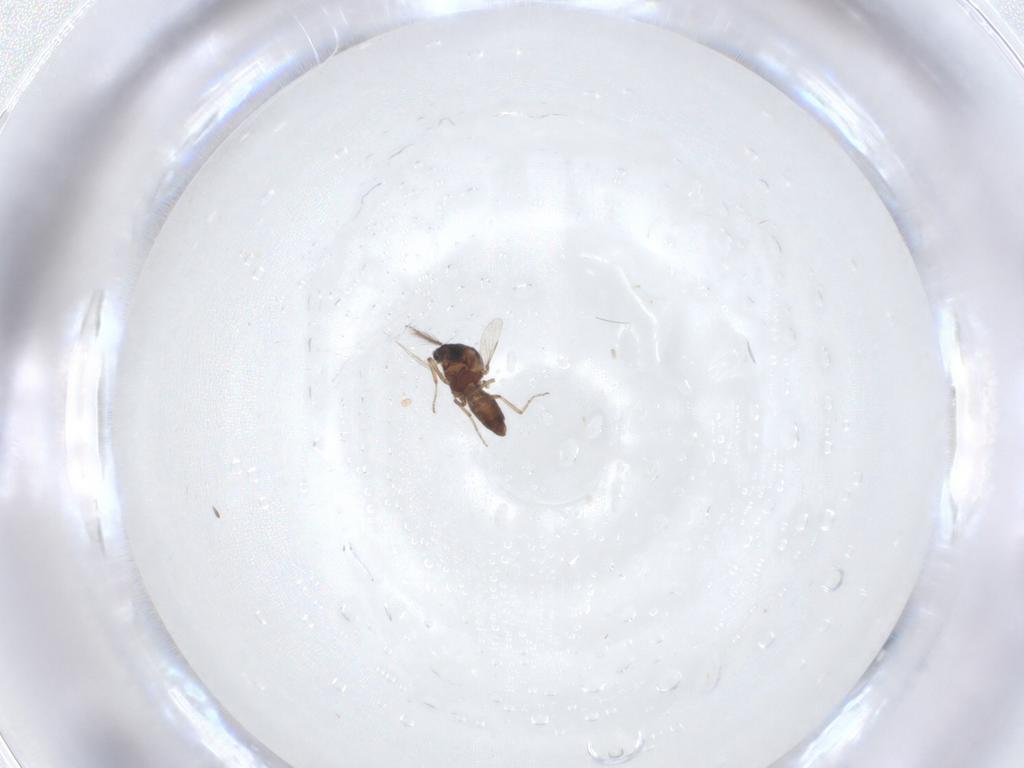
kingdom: Animalia
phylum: Arthropoda
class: Insecta
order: Diptera
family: Ceratopogonidae
